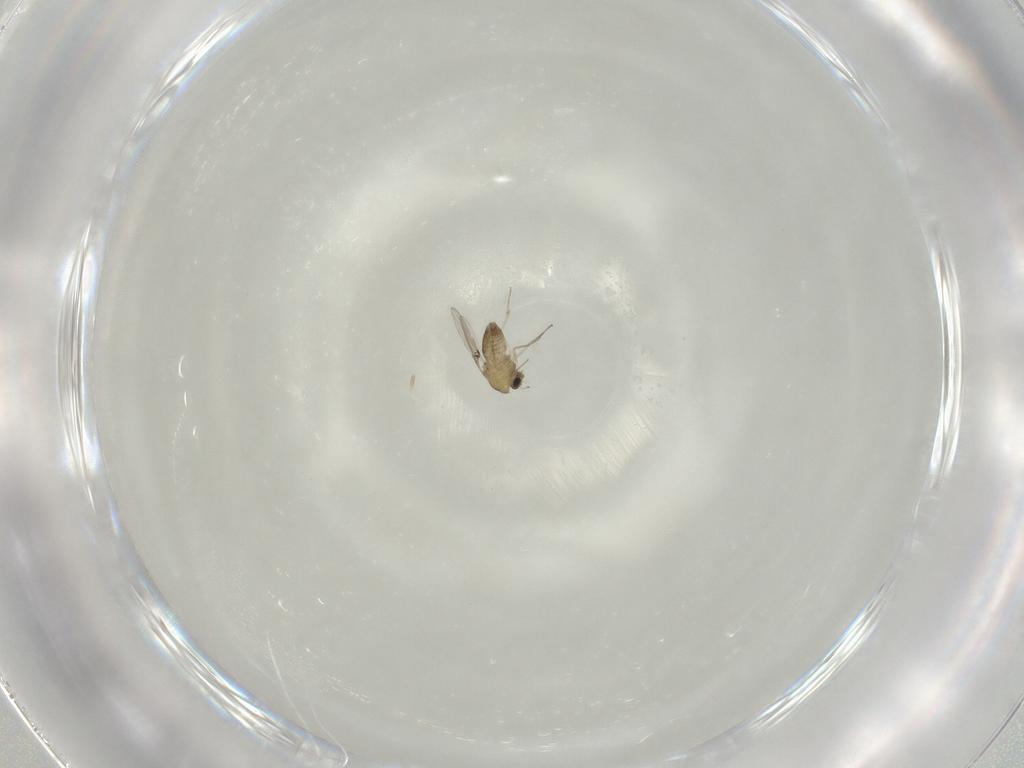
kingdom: Animalia
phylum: Arthropoda
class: Insecta
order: Diptera
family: Chironomidae
